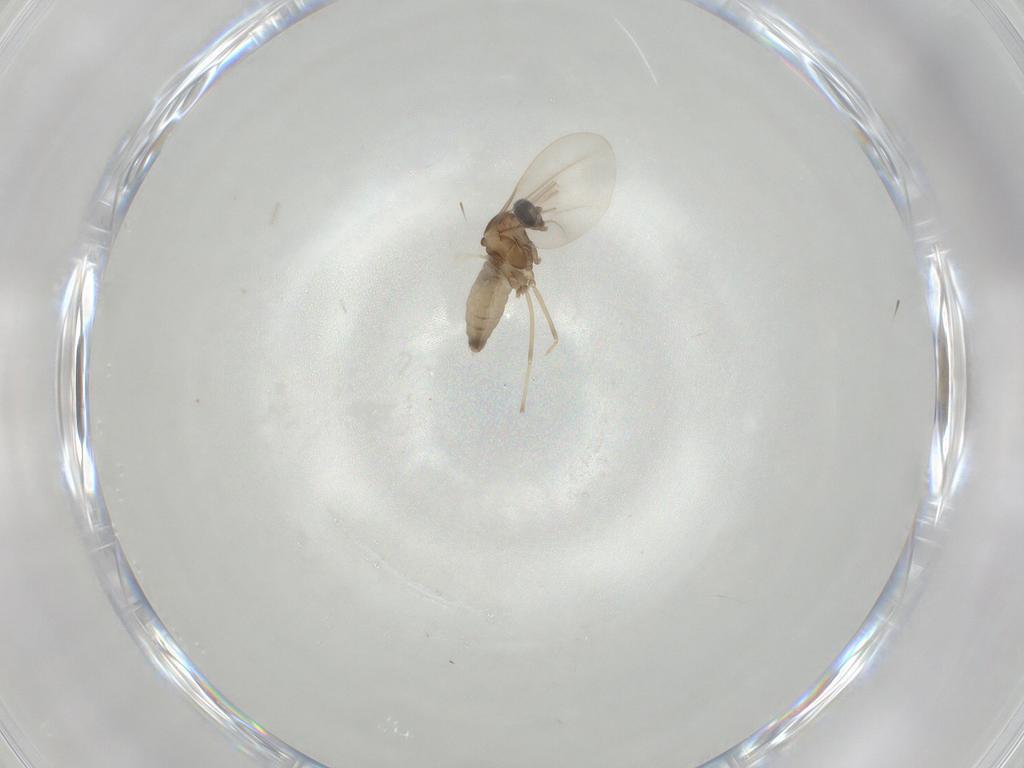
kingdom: Animalia
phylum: Arthropoda
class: Insecta
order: Diptera
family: Cecidomyiidae
